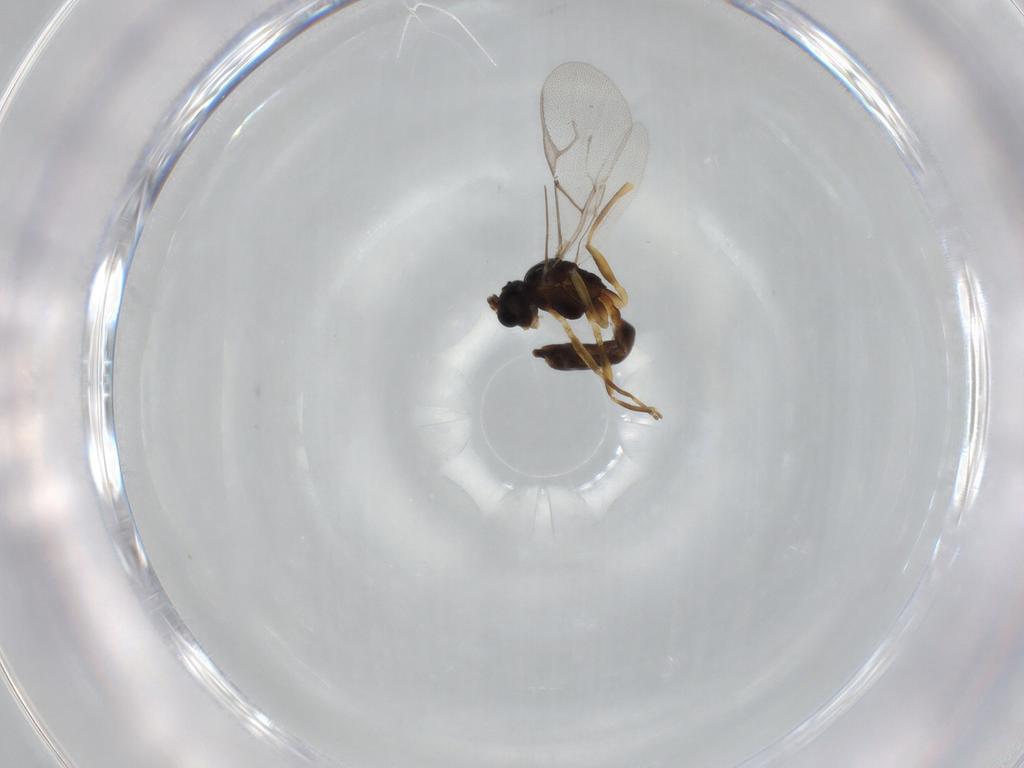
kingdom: Animalia
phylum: Arthropoda
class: Insecta
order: Hymenoptera
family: Braconidae
